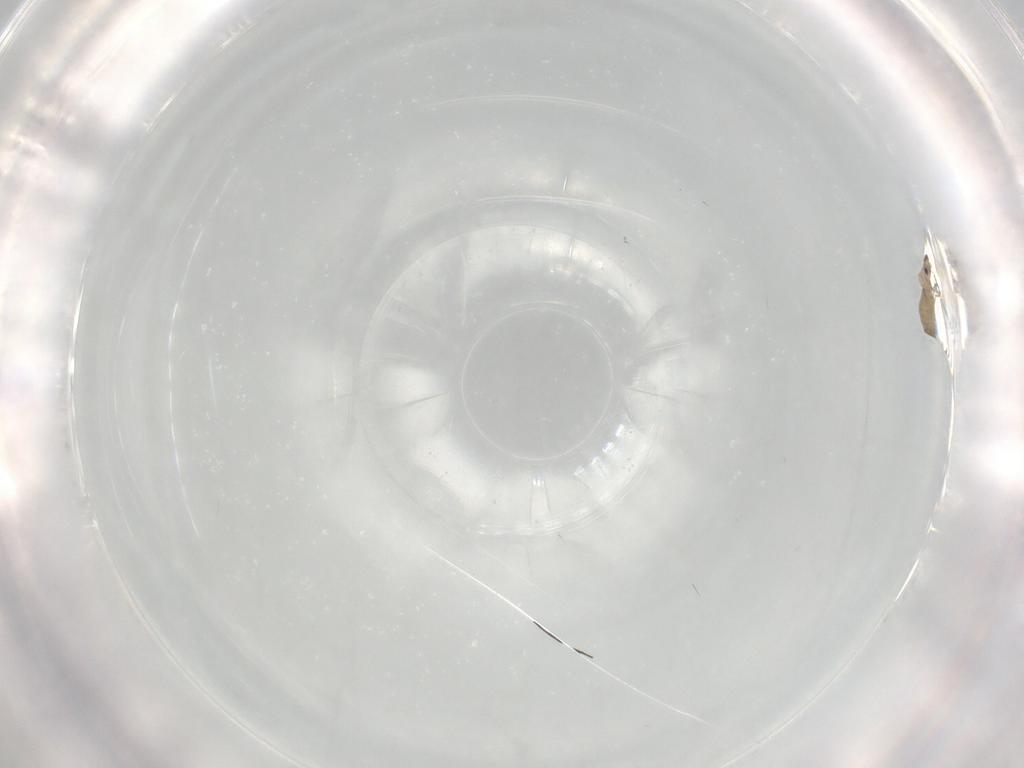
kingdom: Animalia
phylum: Arthropoda
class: Insecta
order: Diptera
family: Cecidomyiidae
